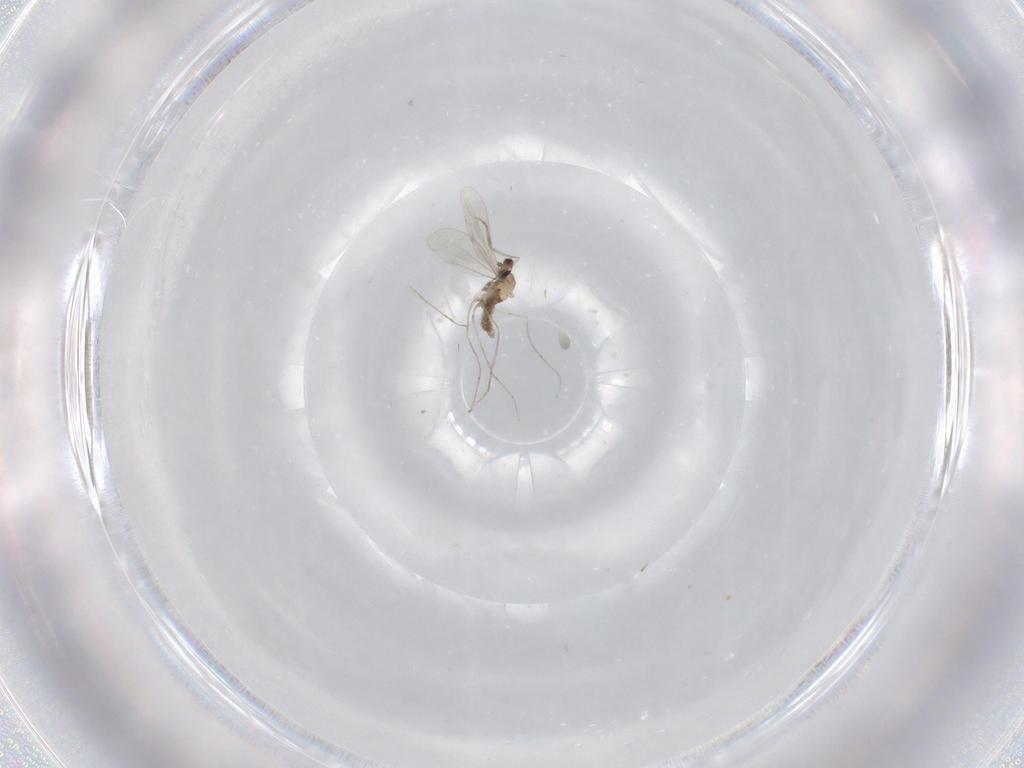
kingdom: Animalia
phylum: Arthropoda
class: Insecta
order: Diptera
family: Cecidomyiidae
